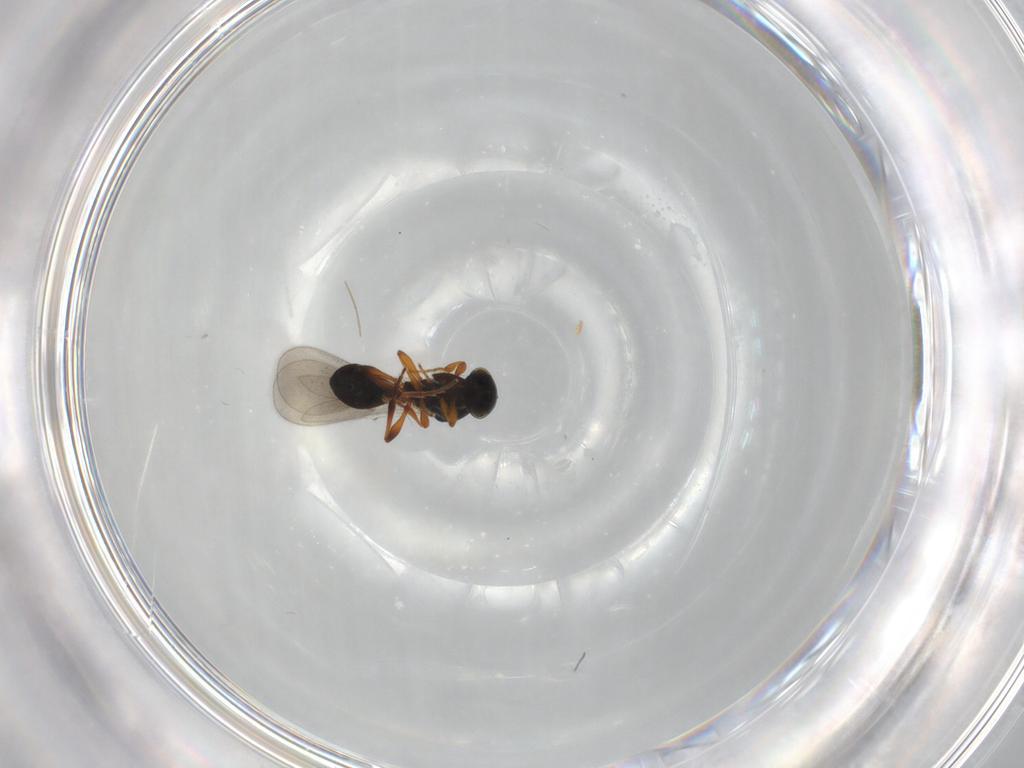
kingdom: Animalia
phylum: Arthropoda
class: Insecta
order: Hymenoptera
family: Platygastridae
